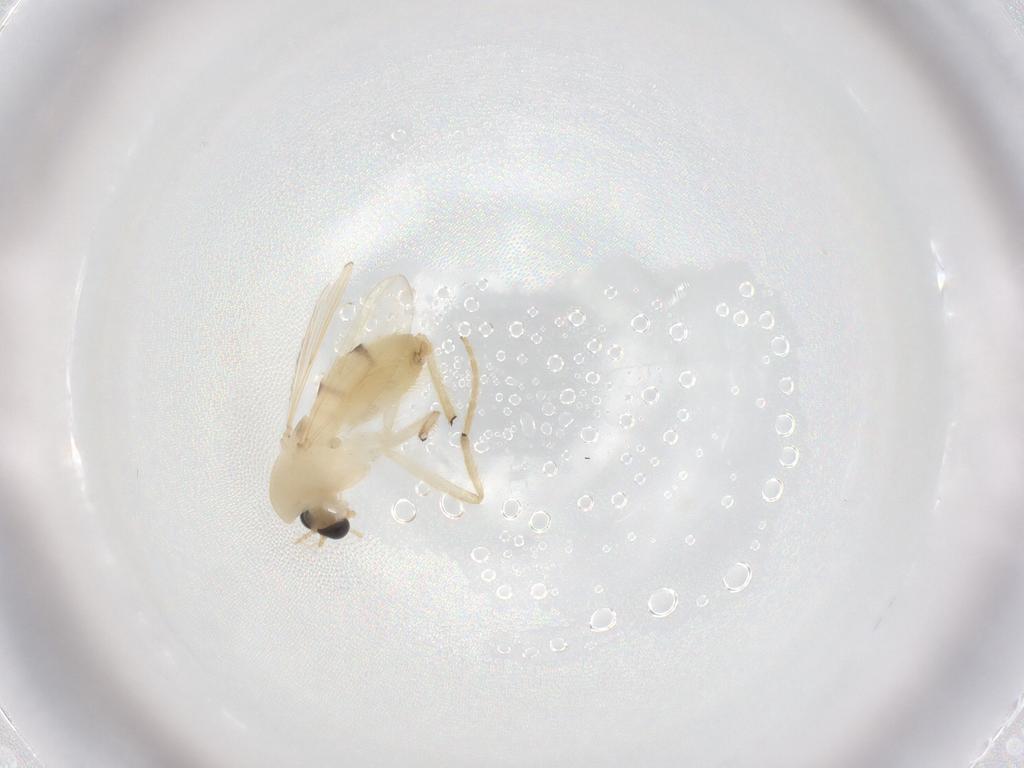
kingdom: Animalia
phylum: Arthropoda
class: Insecta
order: Diptera
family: Chironomidae
